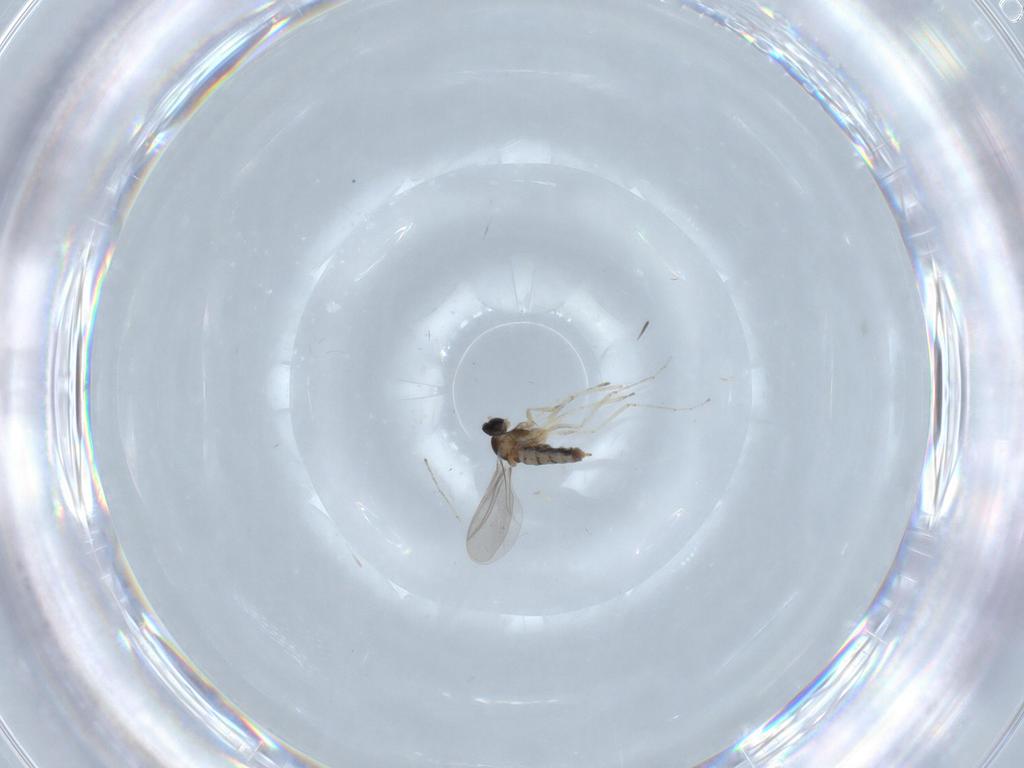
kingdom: Animalia
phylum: Arthropoda
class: Insecta
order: Diptera
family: Cecidomyiidae
